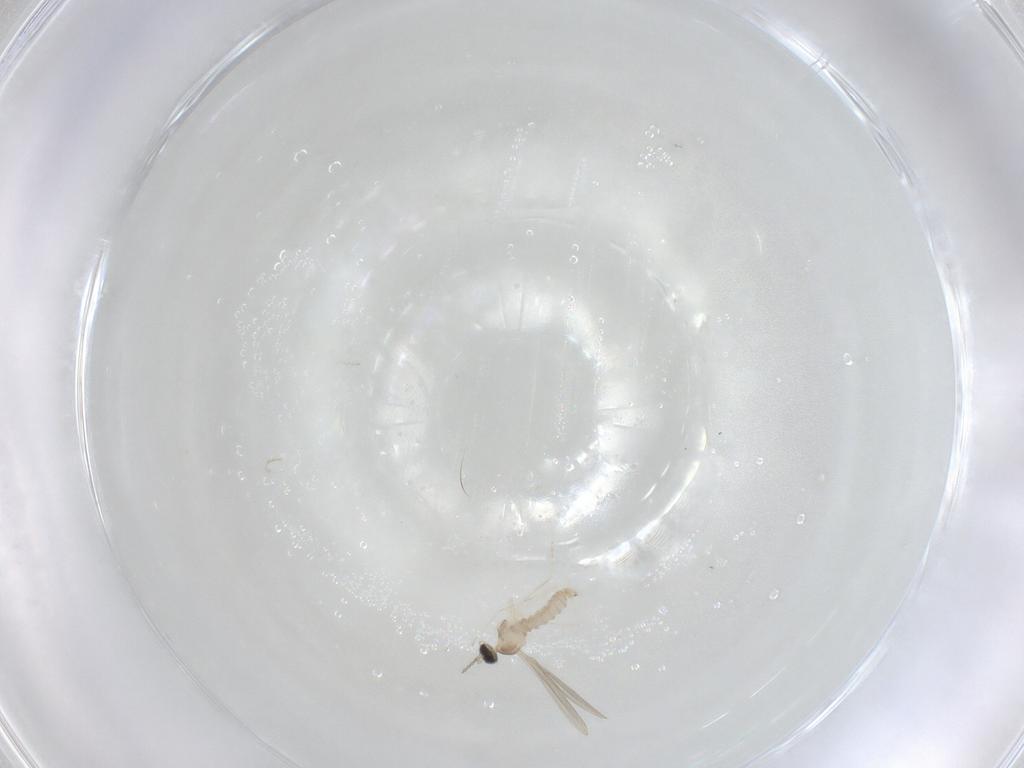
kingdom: Animalia
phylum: Arthropoda
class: Insecta
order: Diptera
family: Cecidomyiidae
